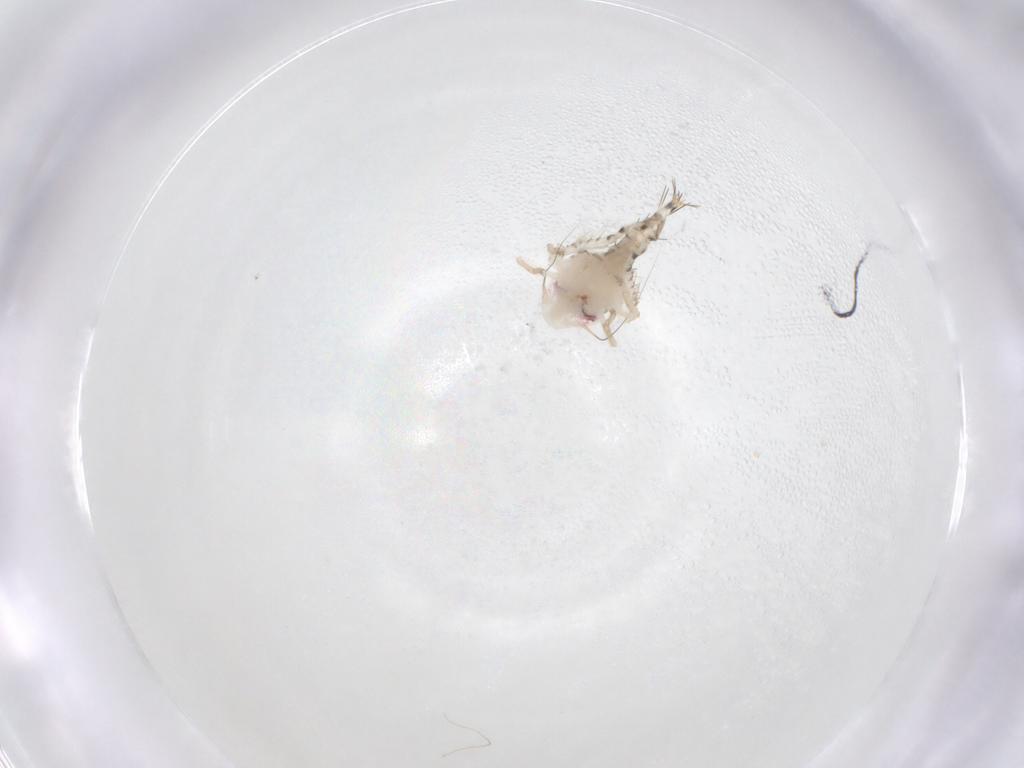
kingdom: Animalia
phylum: Arthropoda
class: Insecta
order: Hemiptera
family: Cicadellidae
